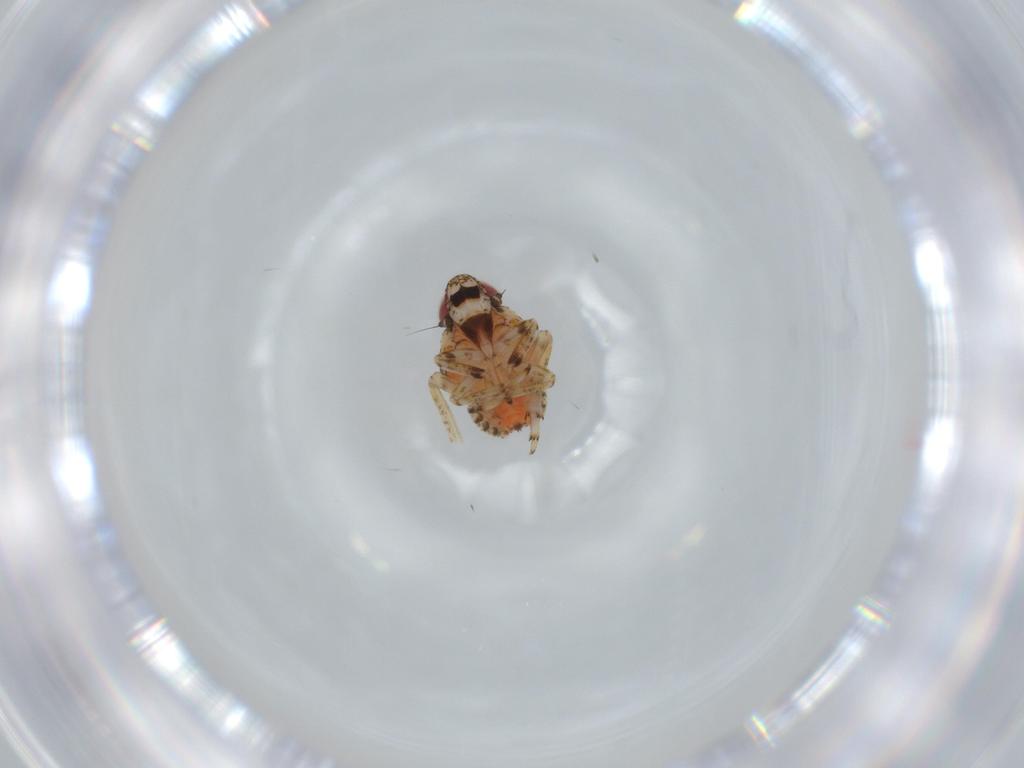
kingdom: Animalia
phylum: Arthropoda
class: Insecta
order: Hemiptera
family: Issidae
